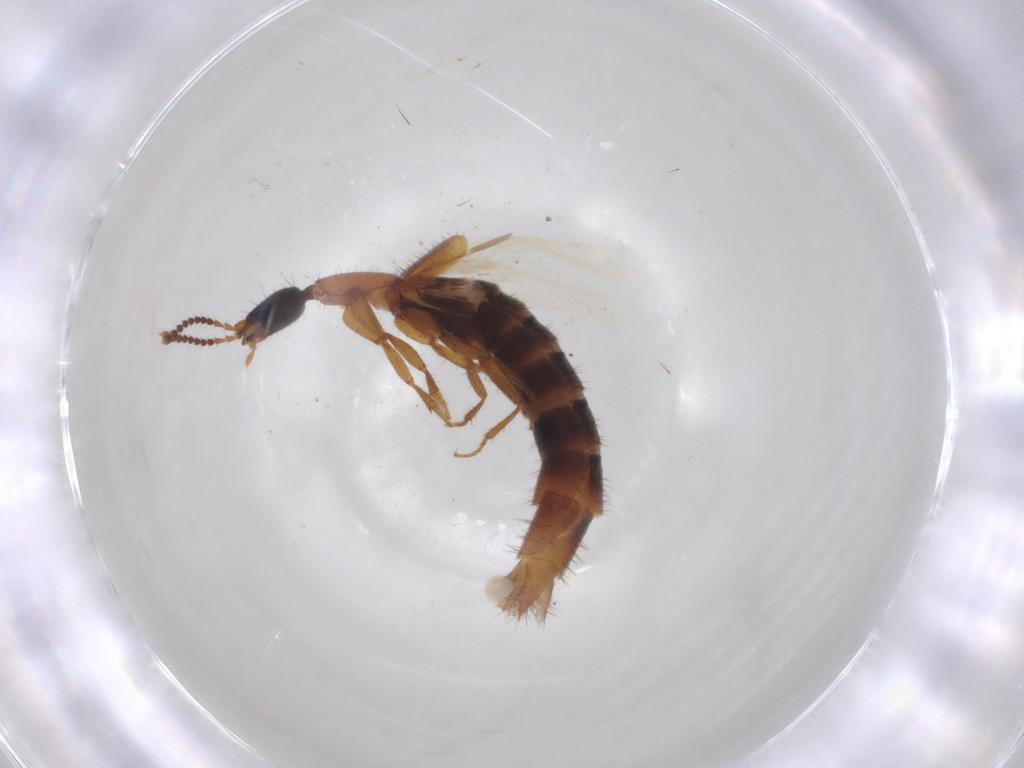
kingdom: Animalia
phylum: Arthropoda
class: Insecta
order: Coleoptera
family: Staphylinidae
